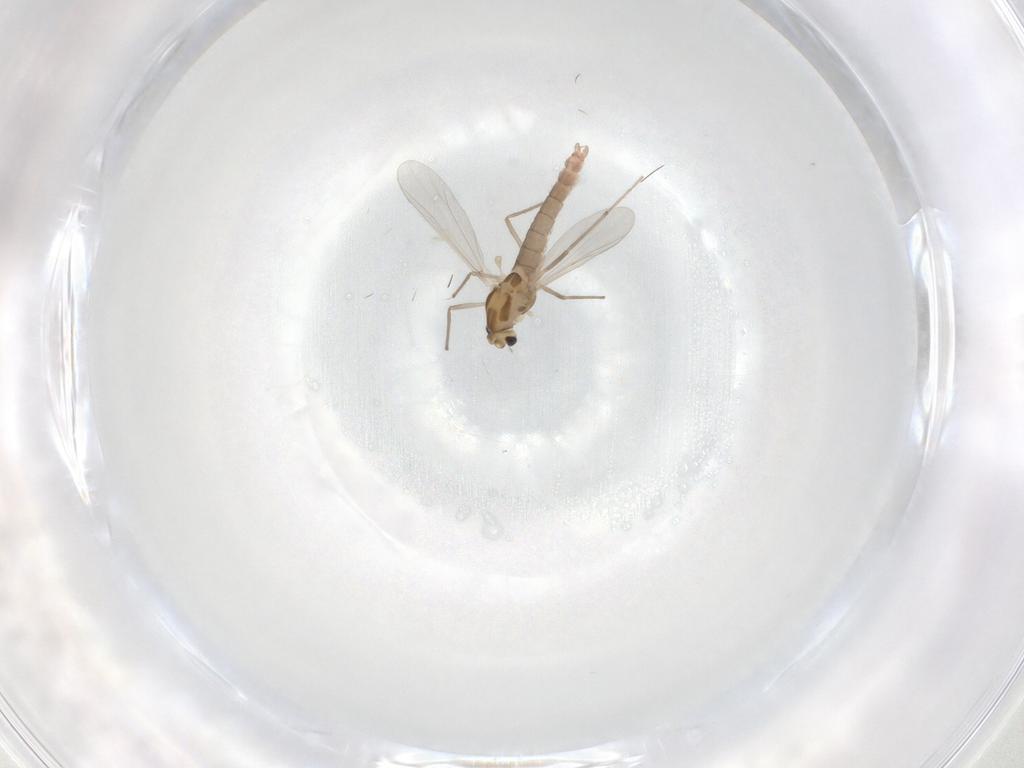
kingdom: Animalia
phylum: Arthropoda
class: Insecta
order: Diptera
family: Chironomidae
